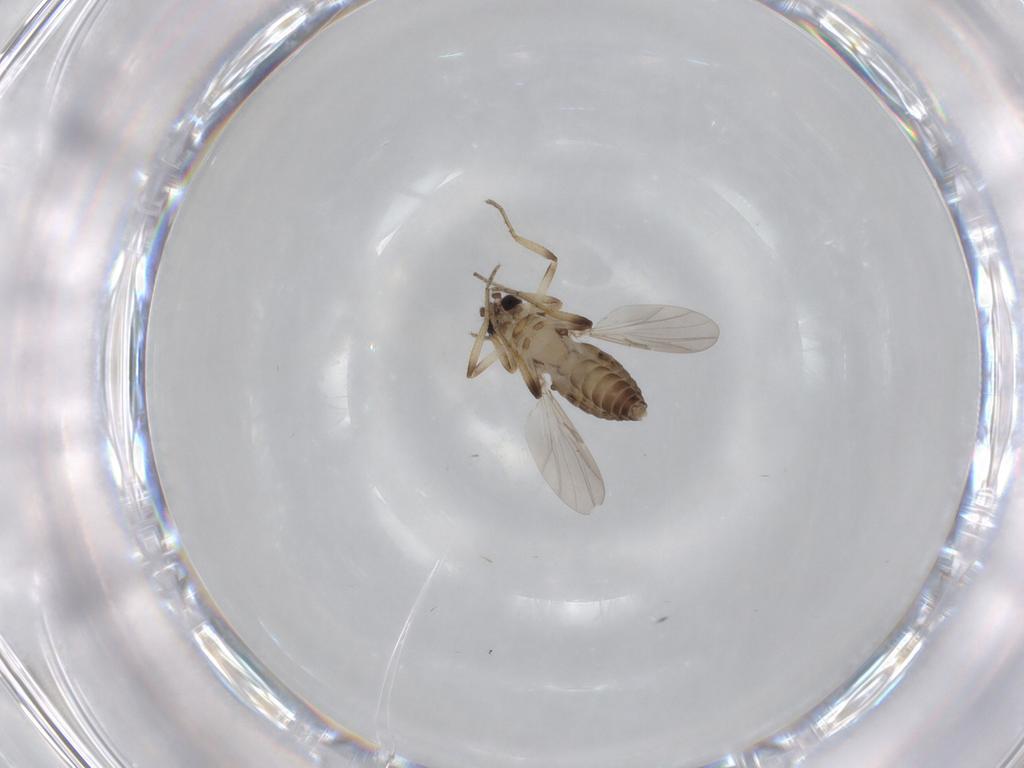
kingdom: Animalia
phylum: Arthropoda
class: Insecta
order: Diptera
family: Ceratopogonidae
